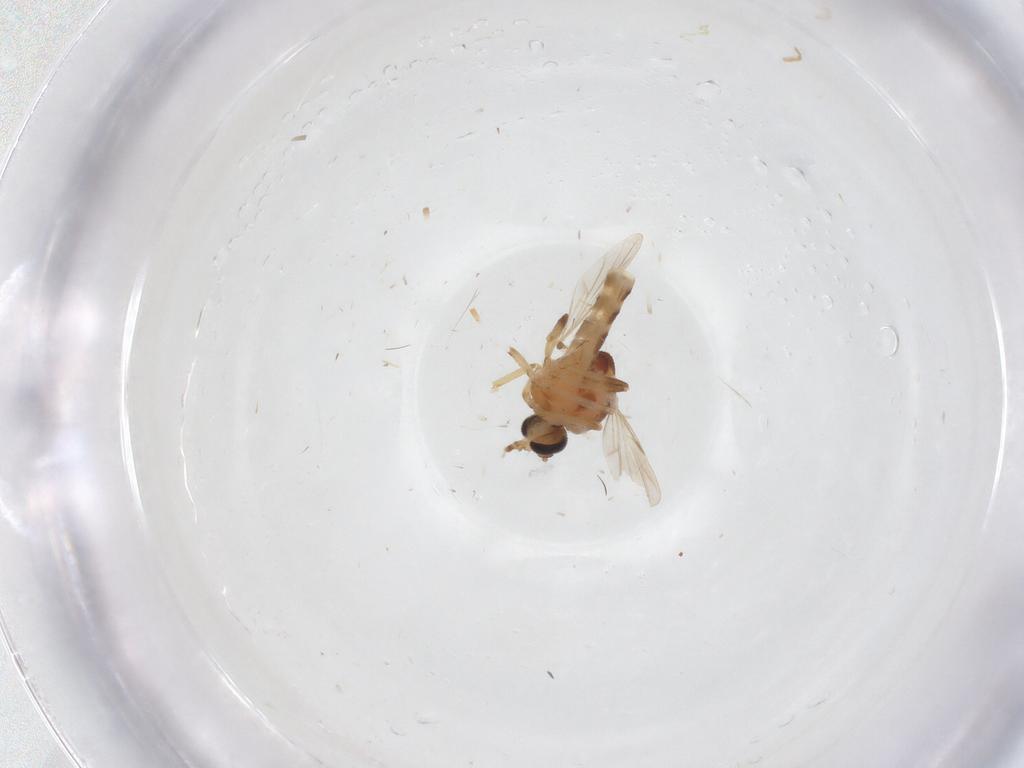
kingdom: Animalia
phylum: Arthropoda
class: Insecta
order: Diptera
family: Ceratopogonidae
